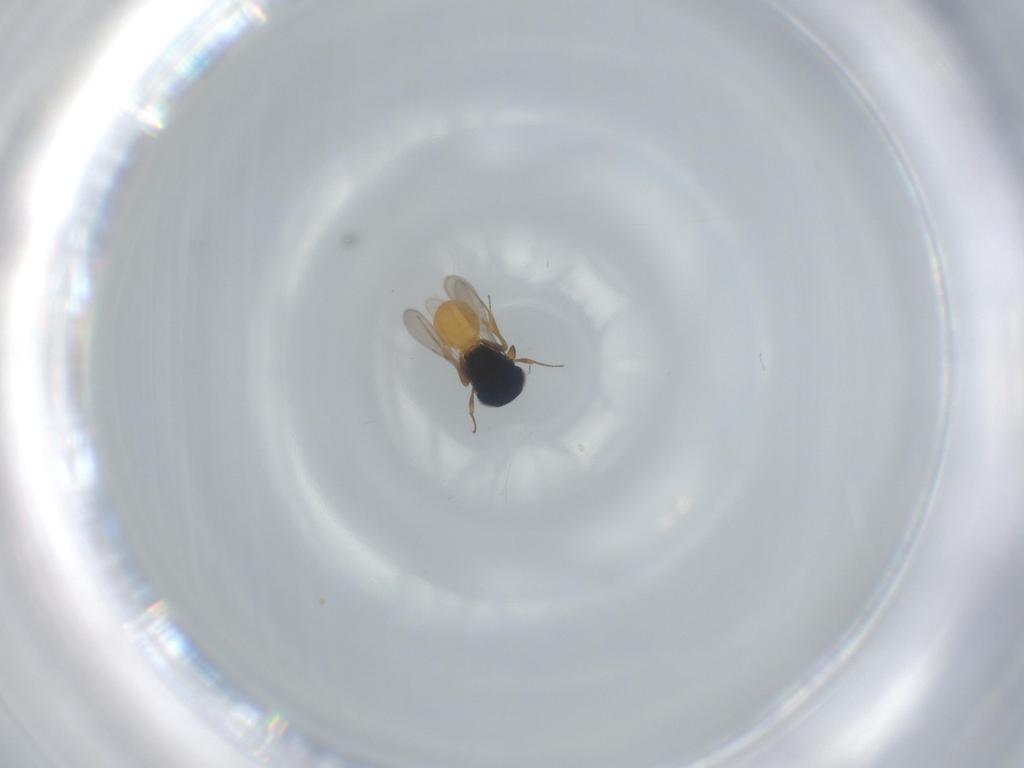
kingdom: Animalia
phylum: Arthropoda
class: Insecta
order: Hymenoptera
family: Scelionidae
